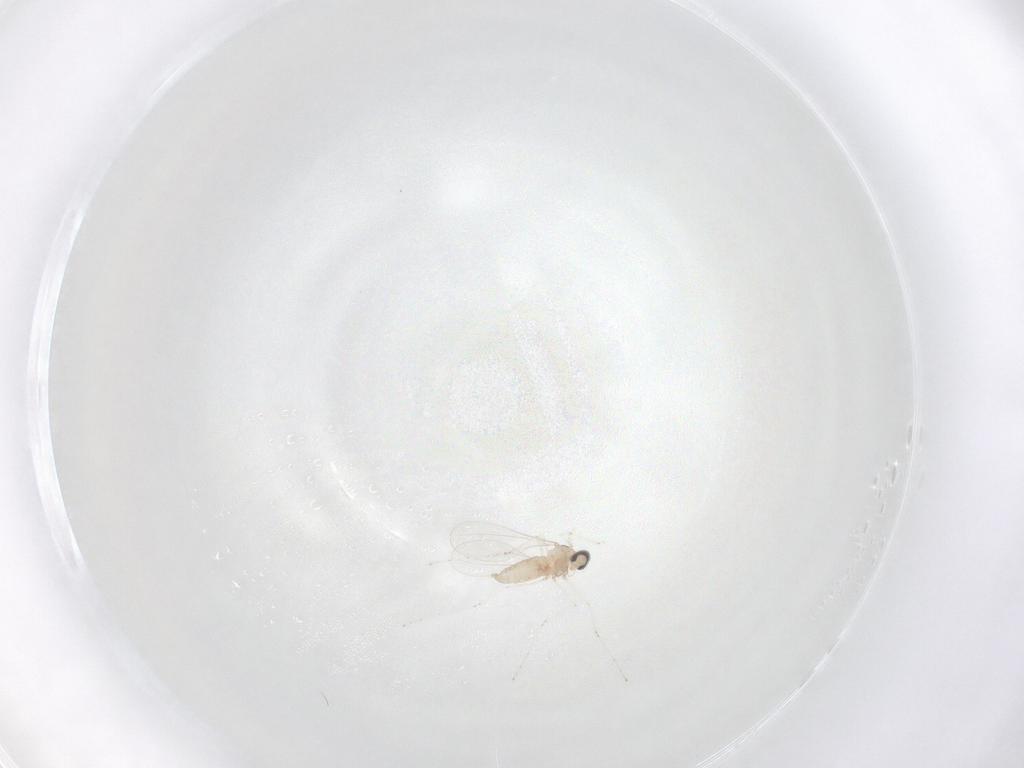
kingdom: Animalia
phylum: Arthropoda
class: Insecta
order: Diptera
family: Cecidomyiidae
